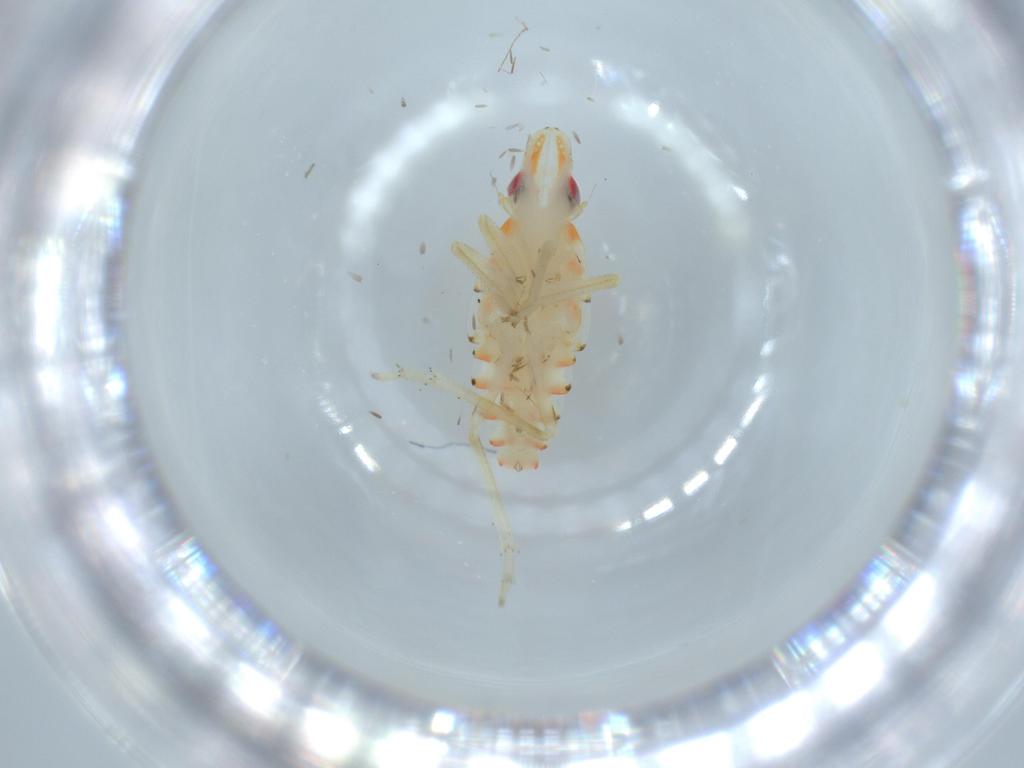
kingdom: Animalia
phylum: Arthropoda
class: Insecta
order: Hemiptera
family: Tropiduchidae
